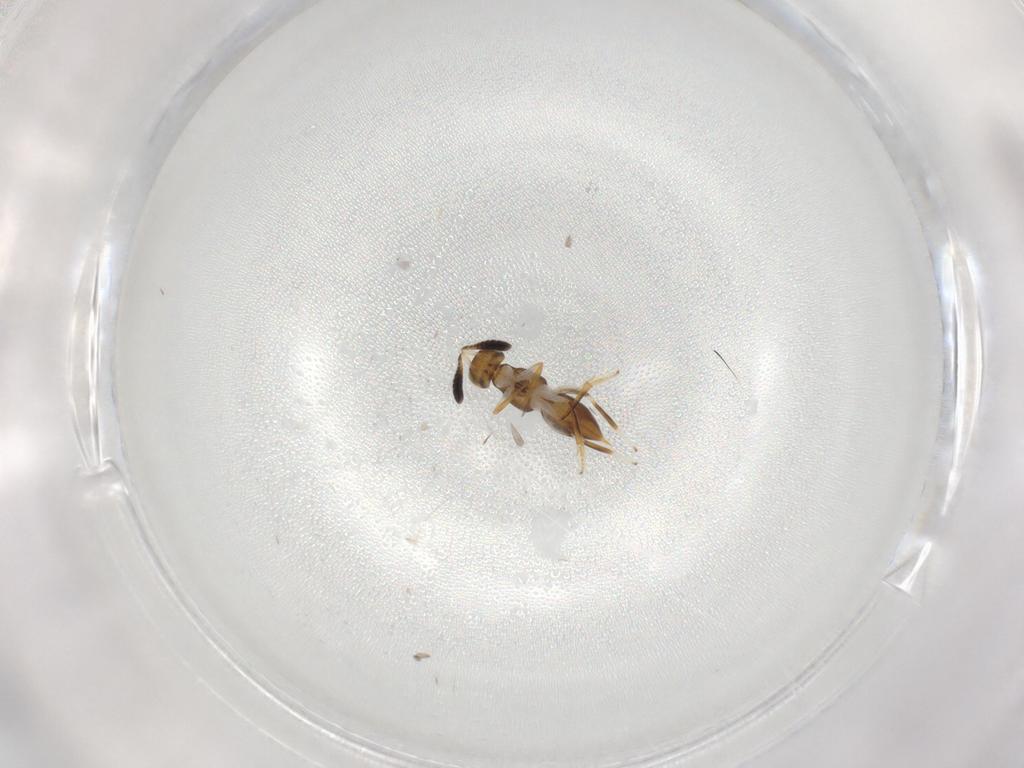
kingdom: Animalia
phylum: Arthropoda
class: Insecta
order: Hymenoptera
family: Encyrtidae
